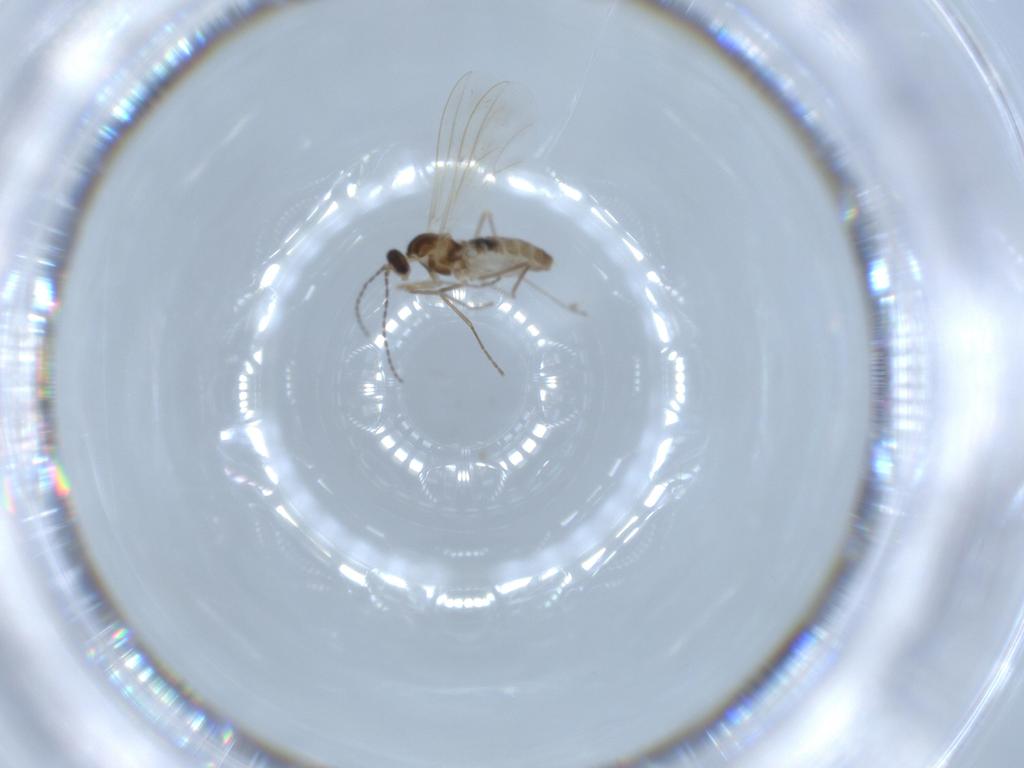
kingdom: Animalia
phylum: Arthropoda
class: Insecta
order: Diptera
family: Cecidomyiidae
